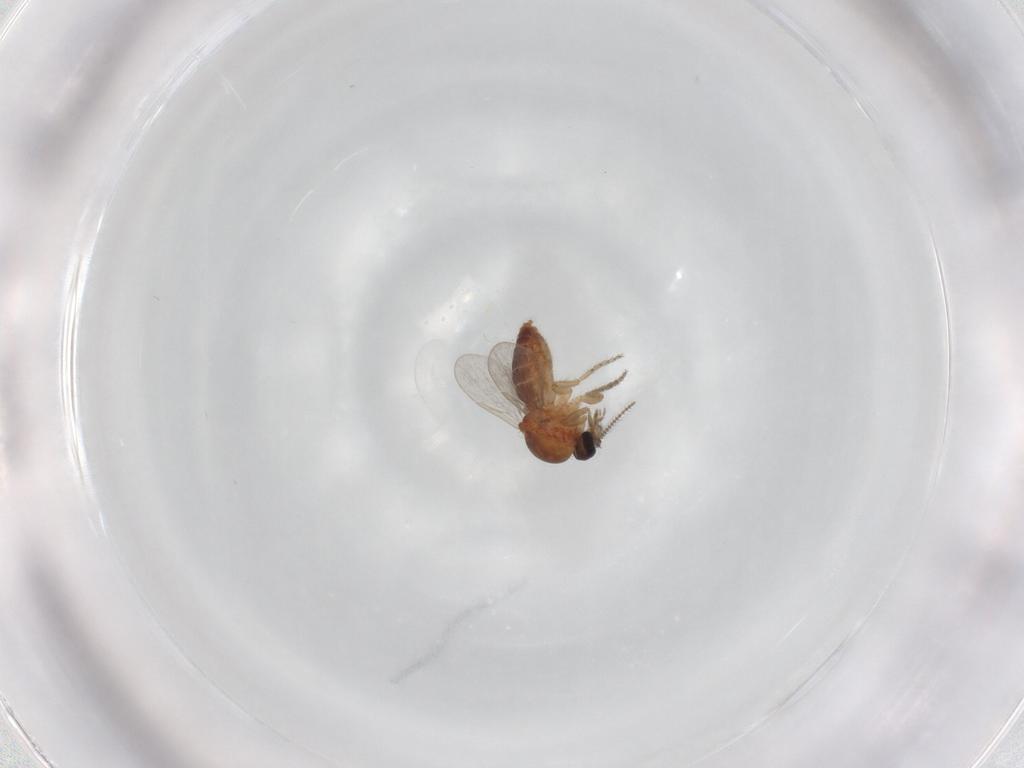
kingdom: Animalia
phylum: Arthropoda
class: Insecta
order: Diptera
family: Ceratopogonidae
